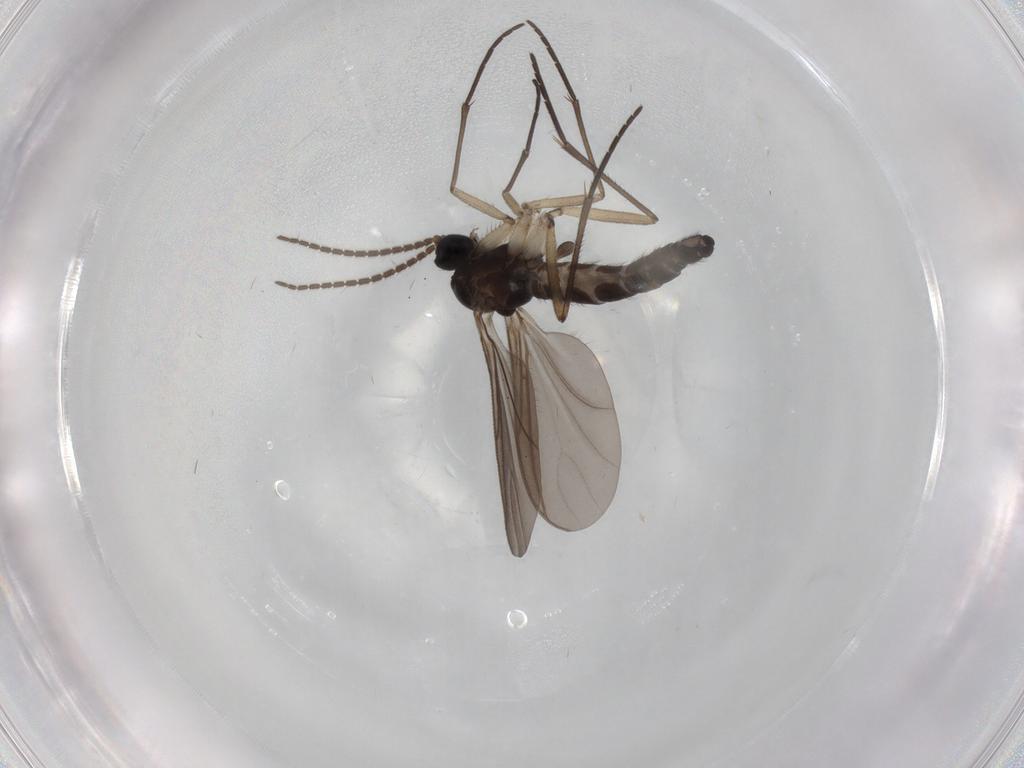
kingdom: Animalia
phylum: Arthropoda
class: Insecta
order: Diptera
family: Sciaridae
